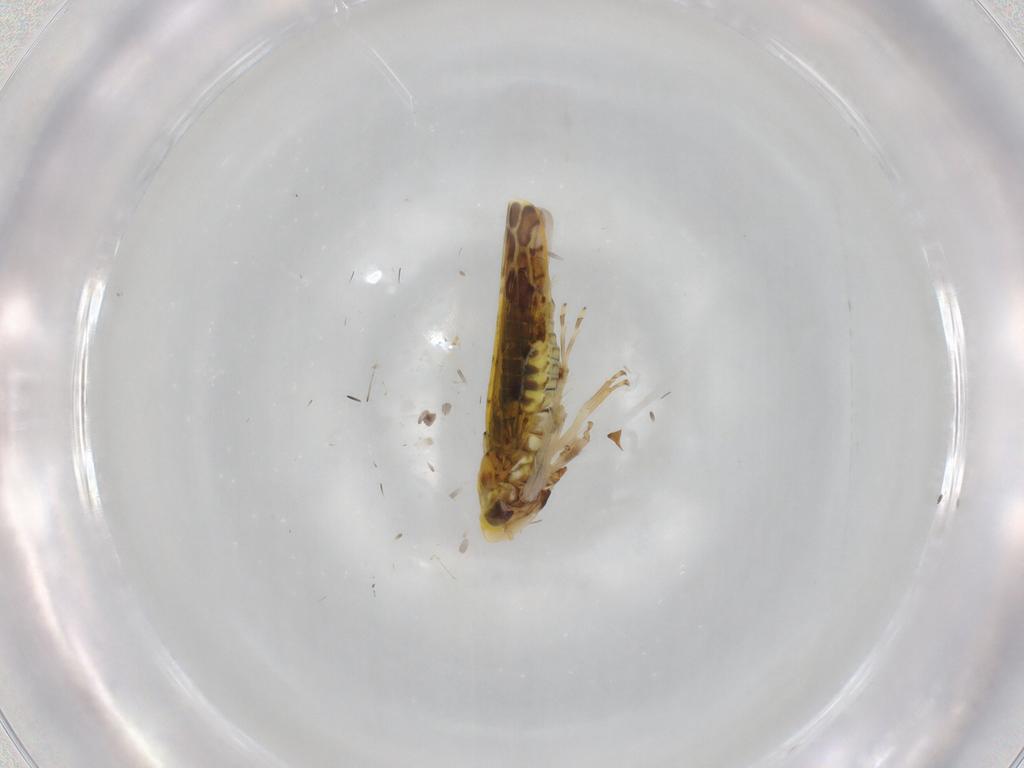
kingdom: Animalia
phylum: Arthropoda
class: Insecta
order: Hemiptera
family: Cicadellidae
